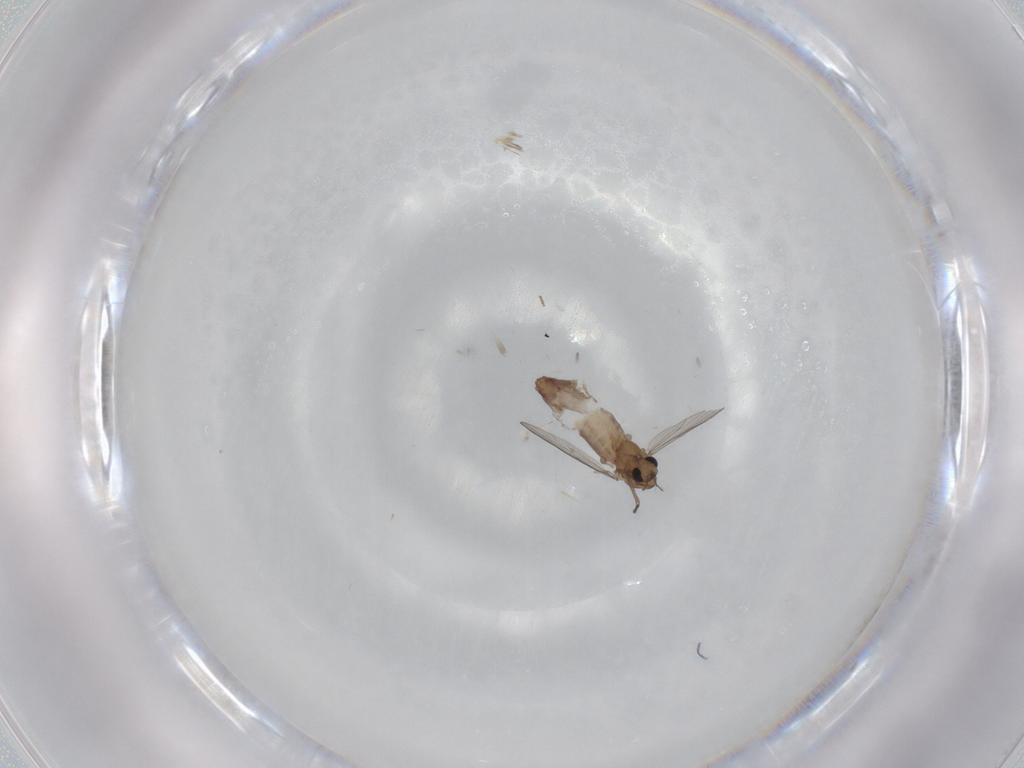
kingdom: Animalia
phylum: Arthropoda
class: Insecta
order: Diptera
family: Chironomidae
